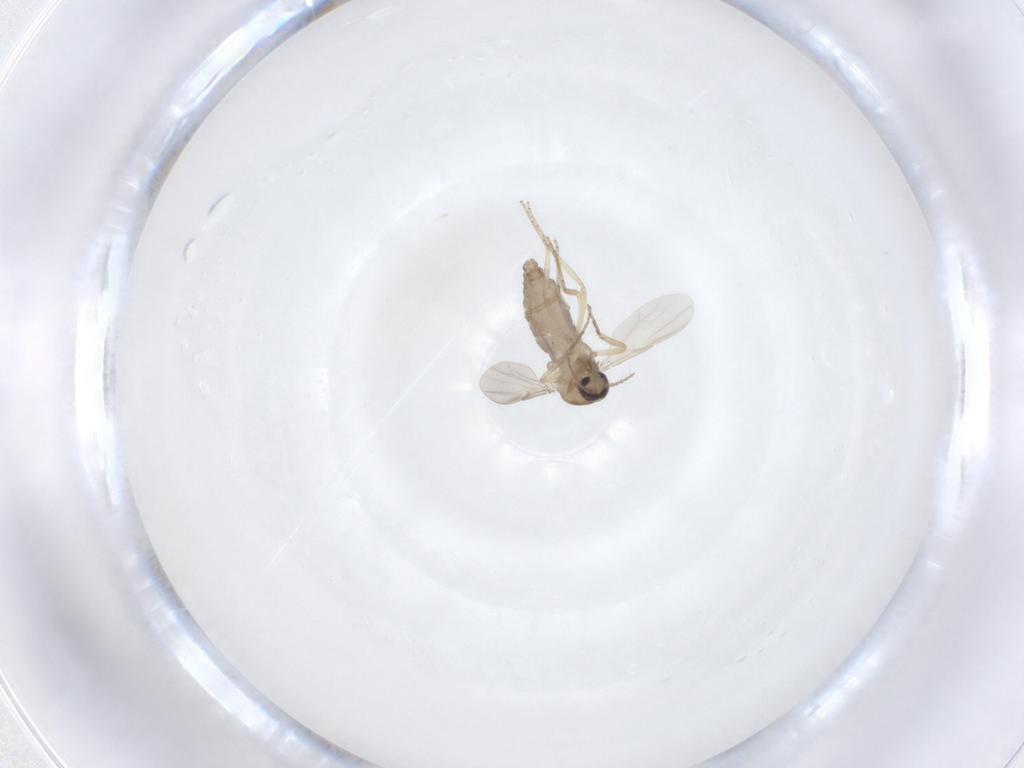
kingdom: Animalia
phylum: Arthropoda
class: Insecta
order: Diptera
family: Ceratopogonidae
